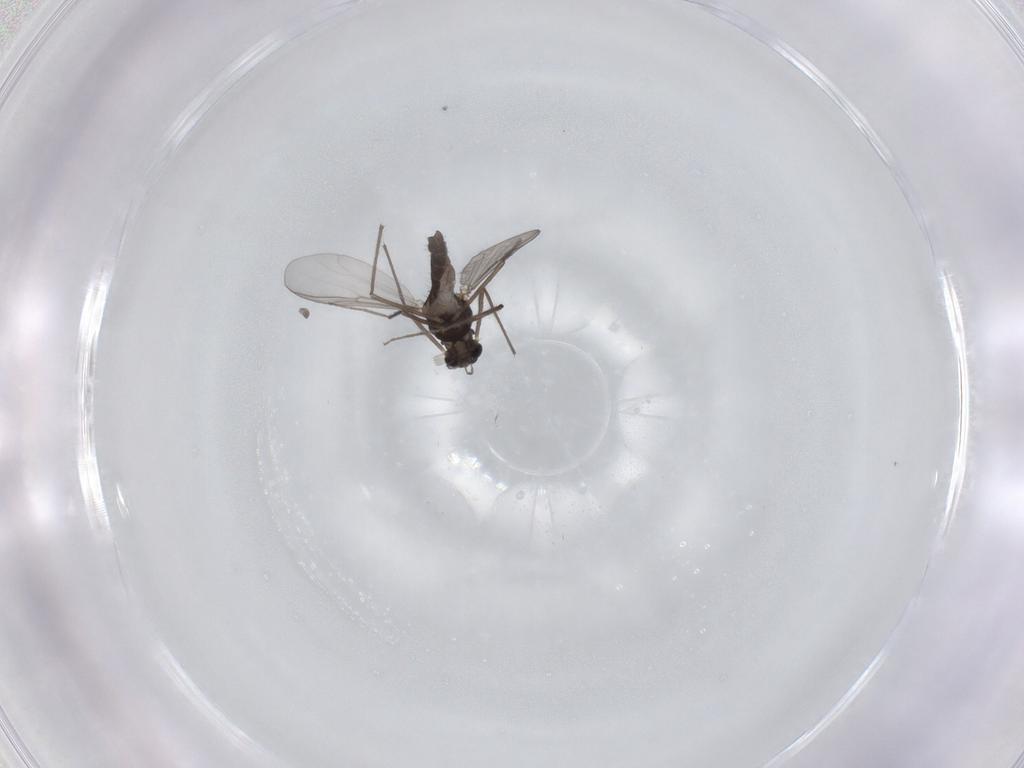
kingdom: Animalia
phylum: Arthropoda
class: Insecta
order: Diptera
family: Chironomidae
